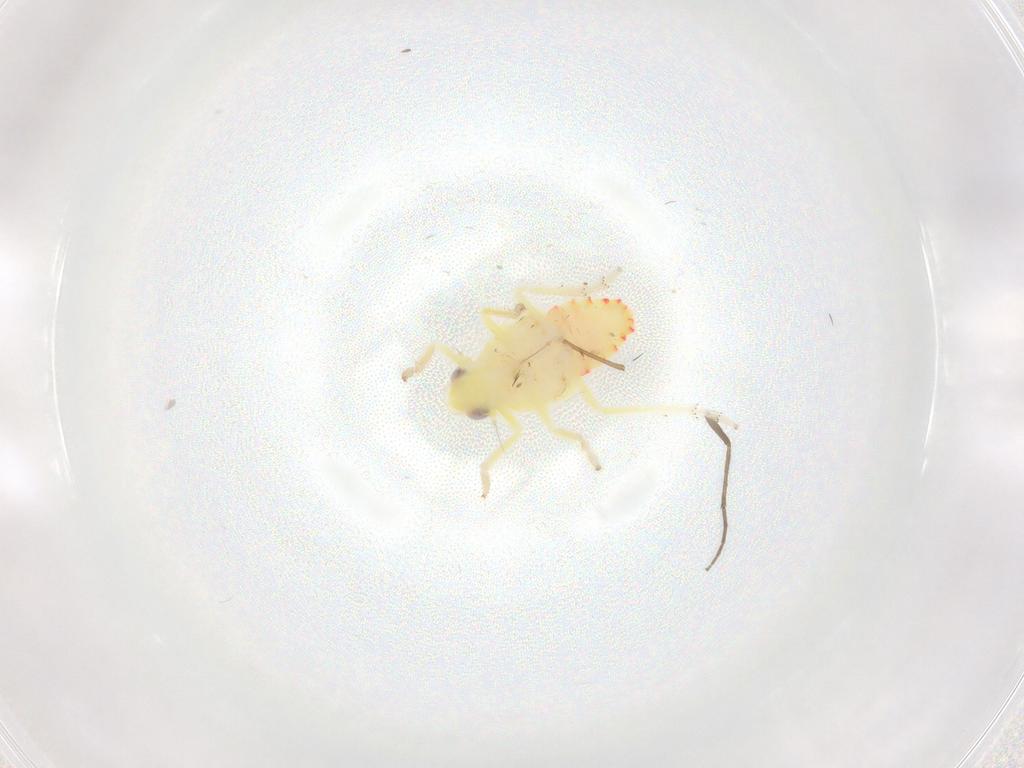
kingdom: Animalia
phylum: Arthropoda
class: Insecta
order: Hemiptera
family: Tropiduchidae
